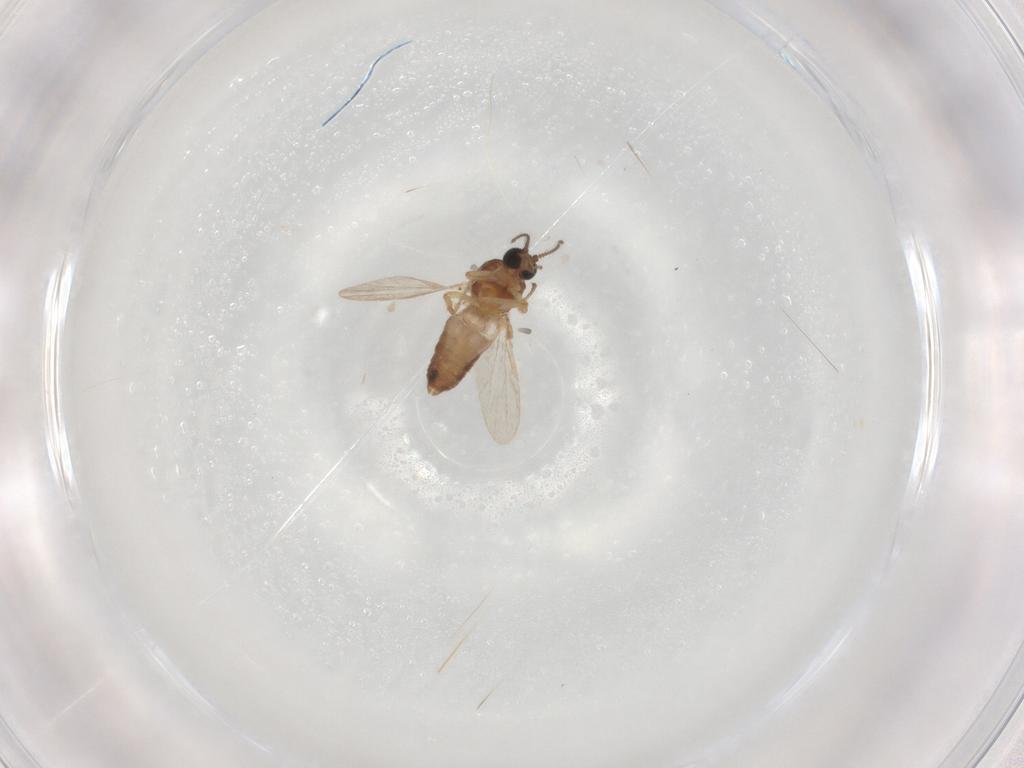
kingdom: Animalia
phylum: Arthropoda
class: Insecta
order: Diptera
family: Ceratopogonidae
